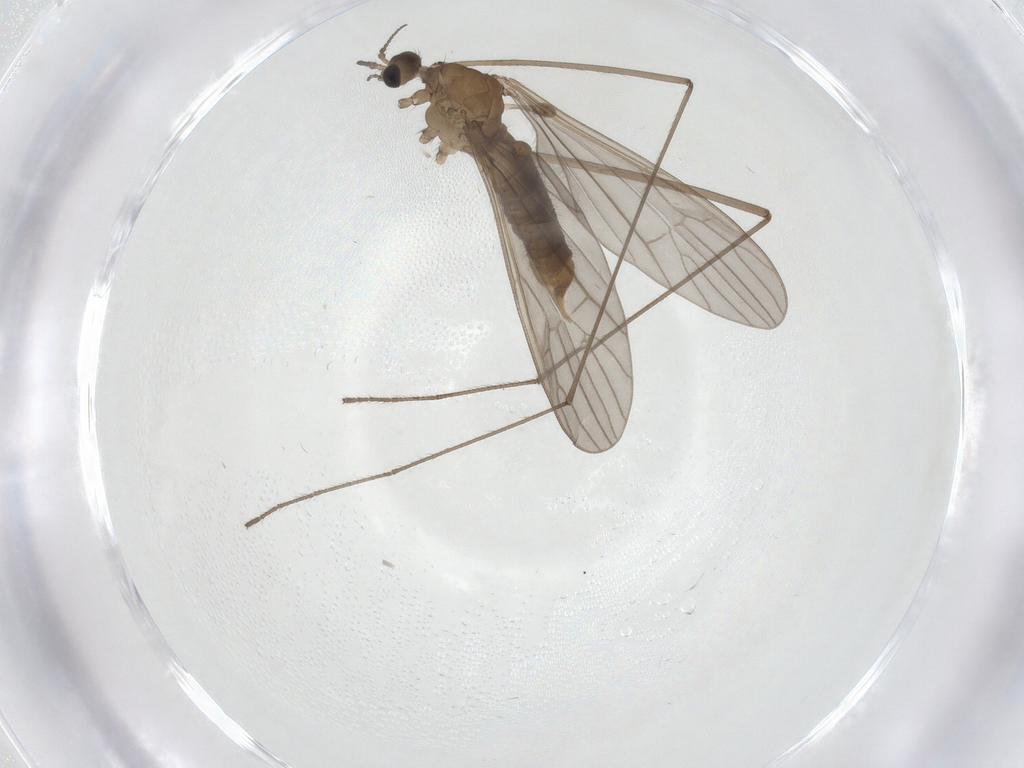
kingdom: Animalia
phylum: Arthropoda
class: Insecta
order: Diptera
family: Limoniidae
